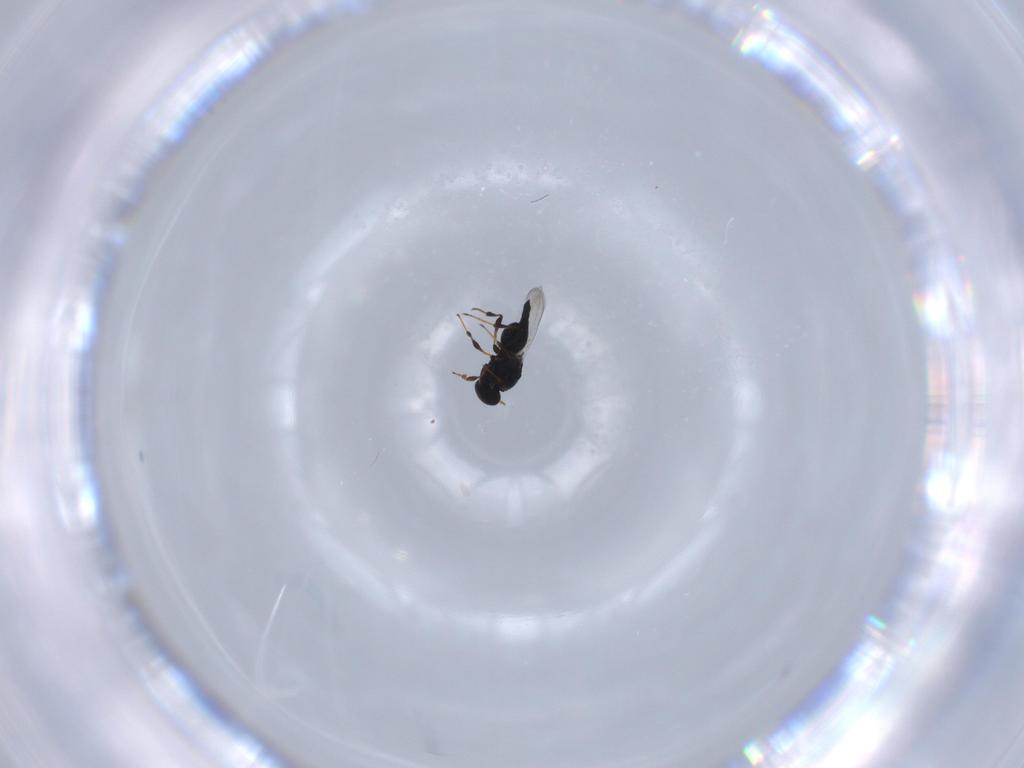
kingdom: Animalia
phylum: Arthropoda
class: Insecta
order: Hymenoptera
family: Platygastridae
